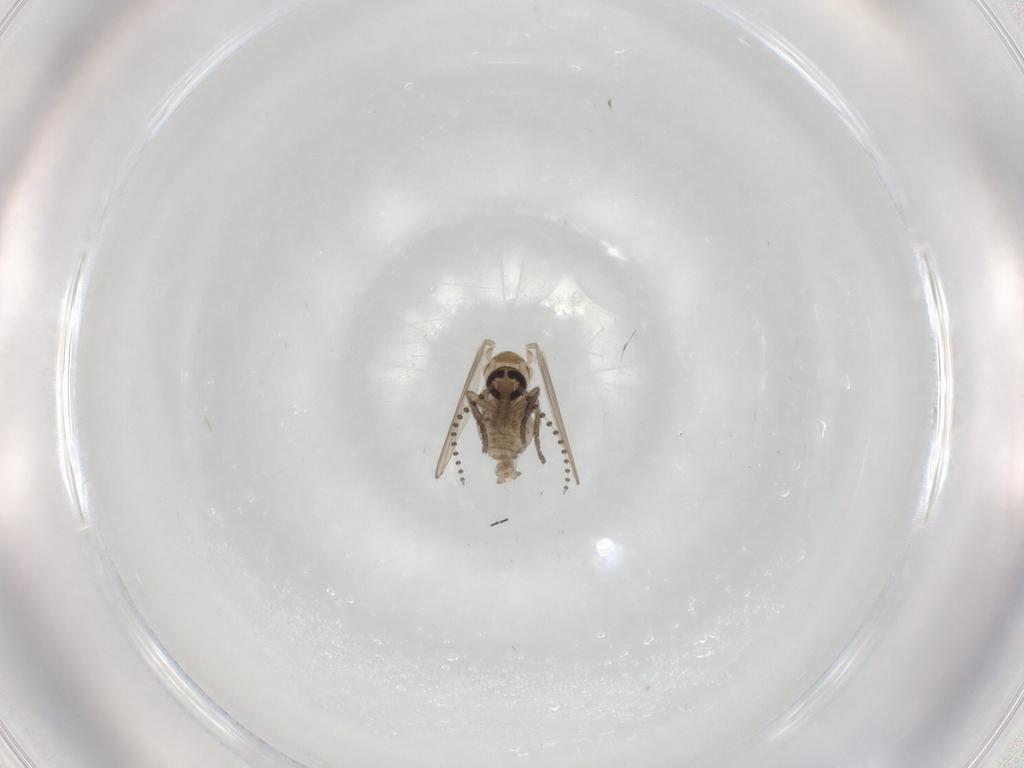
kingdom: Animalia
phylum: Arthropoda
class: Insecta
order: Diptera
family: Psychodidae
